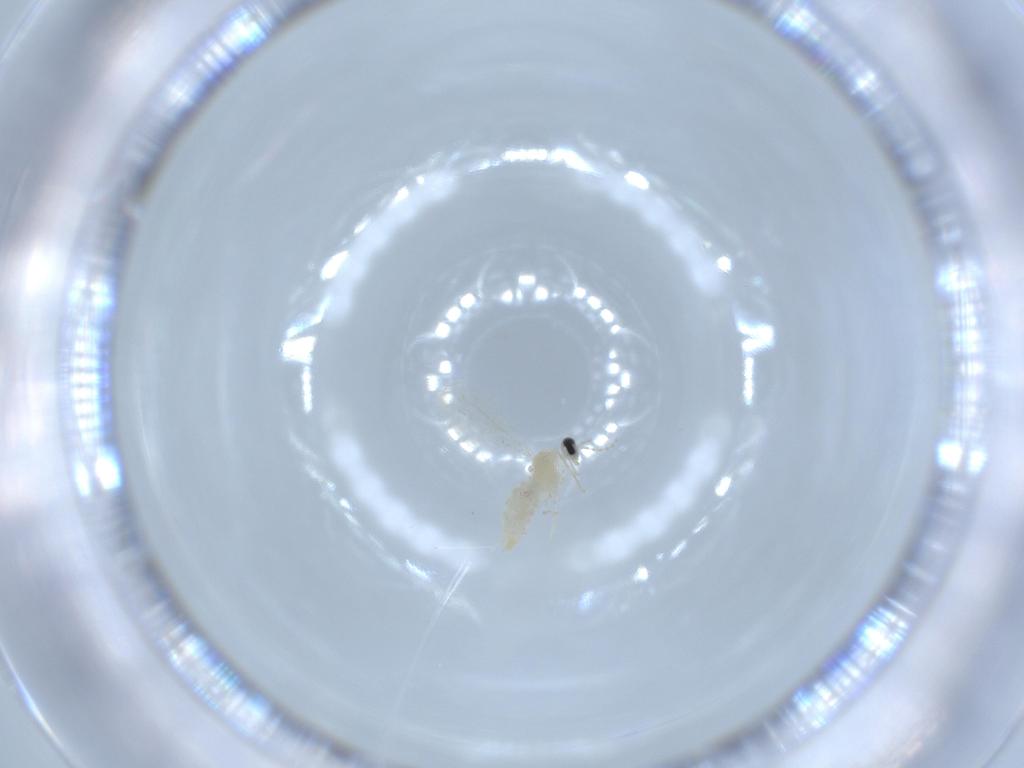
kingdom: Animalia
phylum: Arthropoda
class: Insecta
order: Diptera
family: Cecidomyiidae
